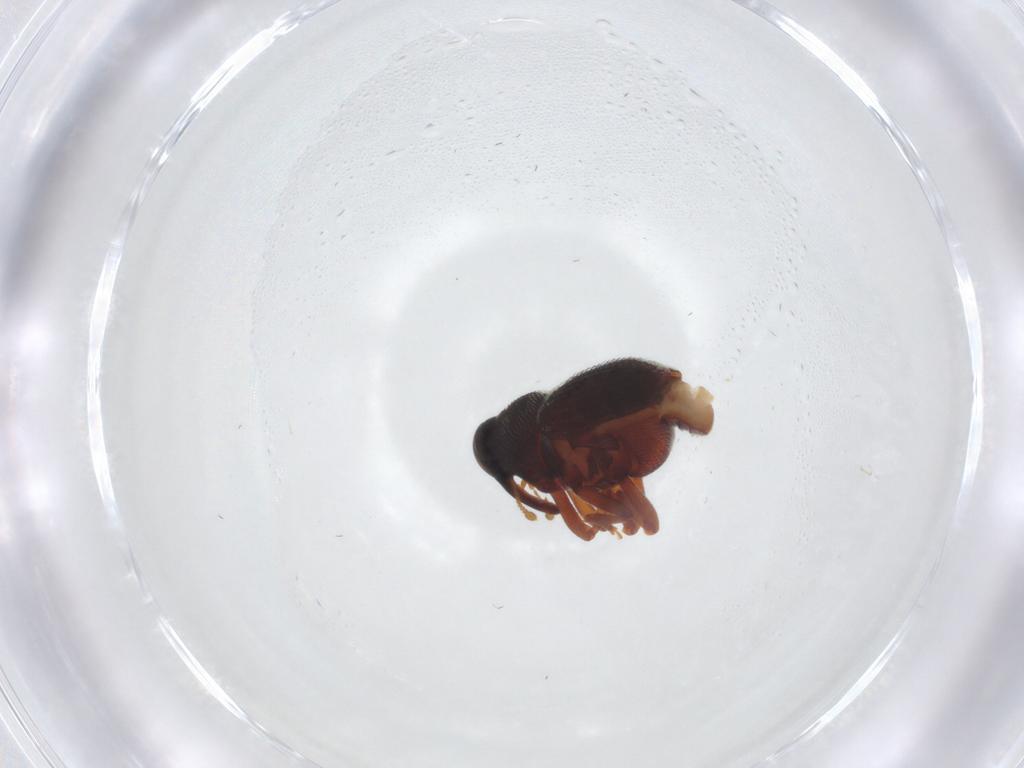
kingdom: Animalia
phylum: Arthropoda
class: Insecta
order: Coleoptera
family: Curculionidae
